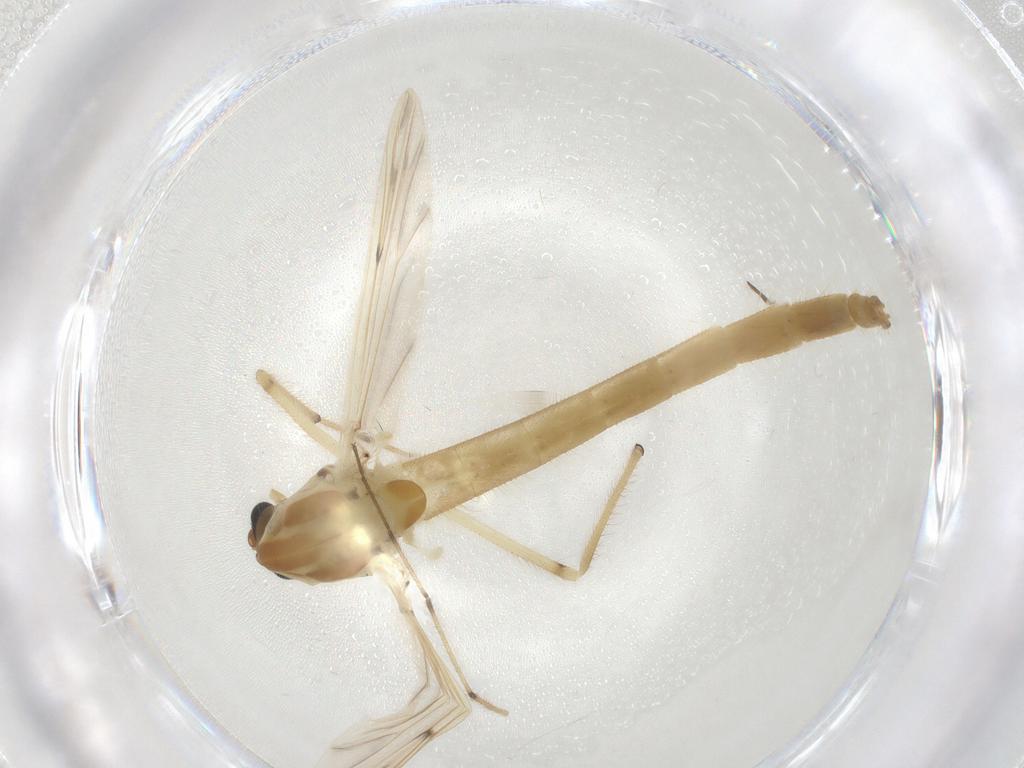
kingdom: Animalia
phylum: Arthropoda
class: Insecta
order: Diptera
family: Chironomidae
